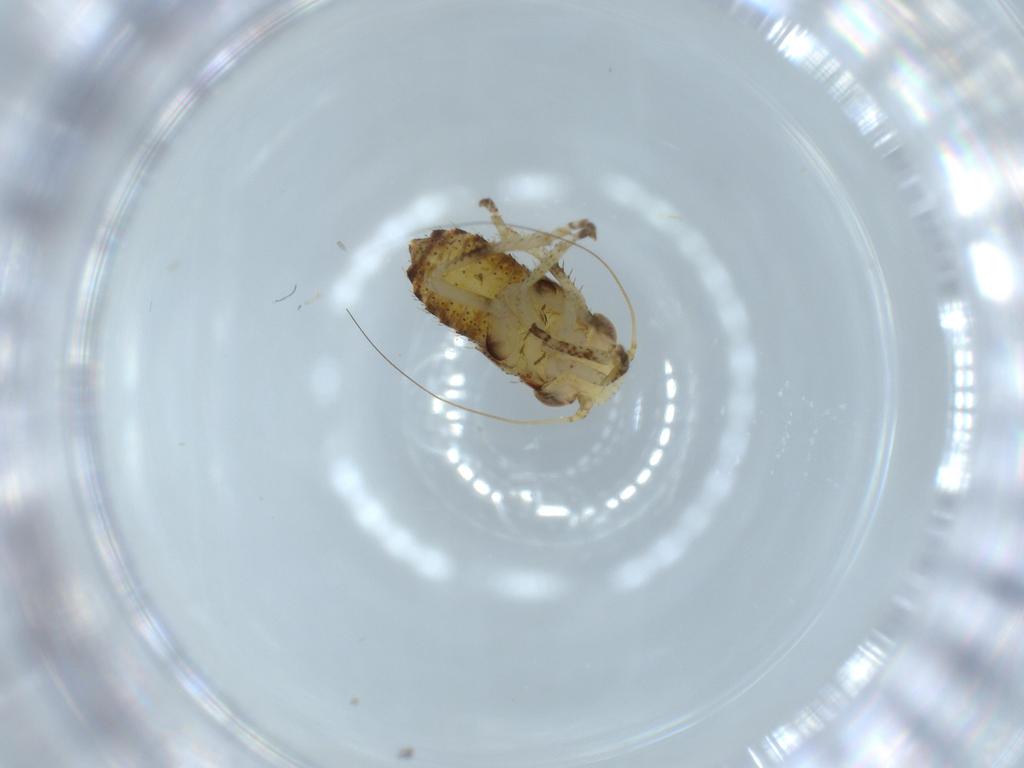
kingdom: Animalia
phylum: Arthropoda
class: Insecta
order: Hemiptera
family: Cicadellidae
